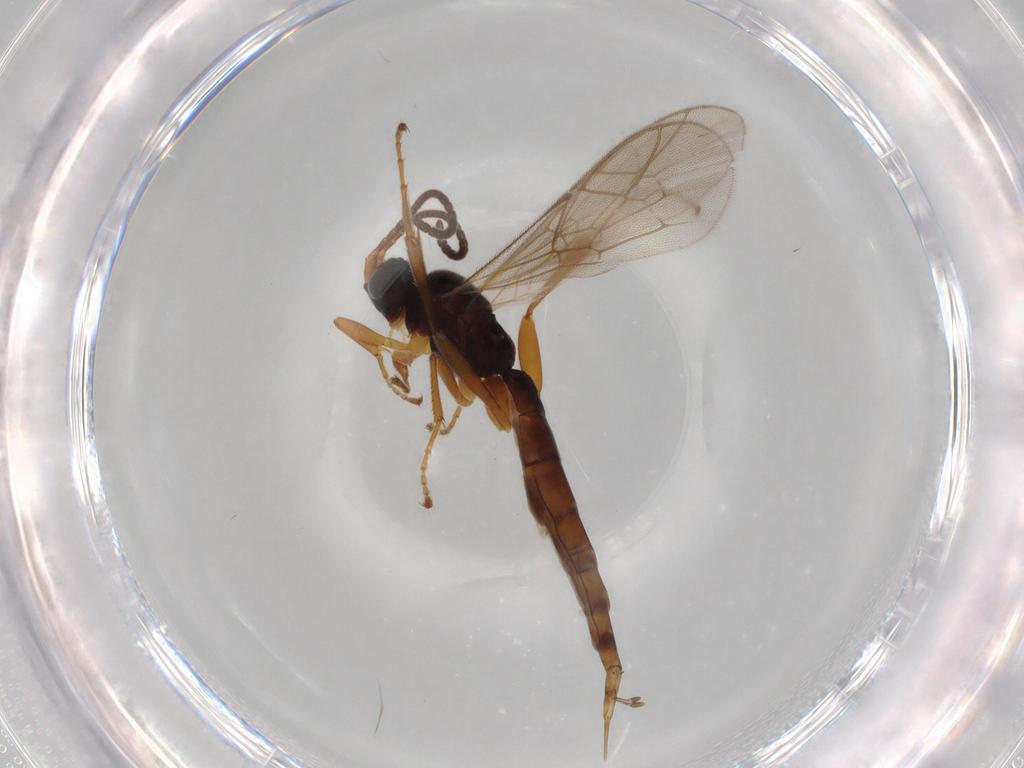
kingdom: Animalia
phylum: Arthropoda
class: Insecta
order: Hymenoptera
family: Ichneumonidae
